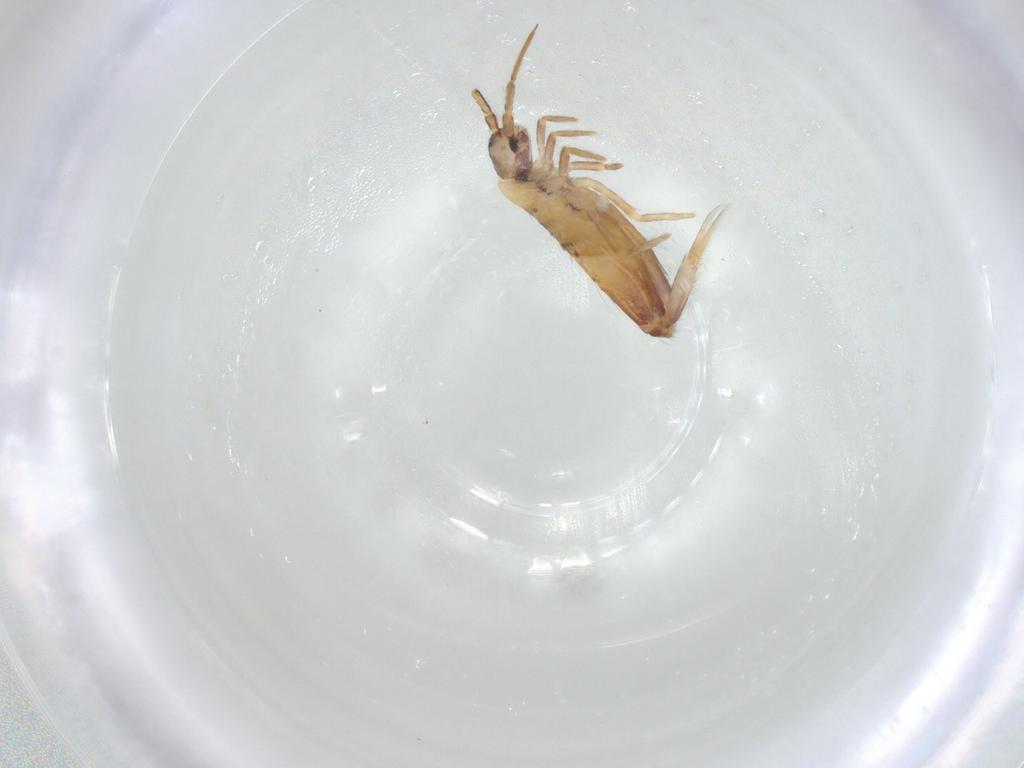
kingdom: Animalia
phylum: Arthropoda
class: Collembola
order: Entomobryomorpha
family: Entomobryidae
